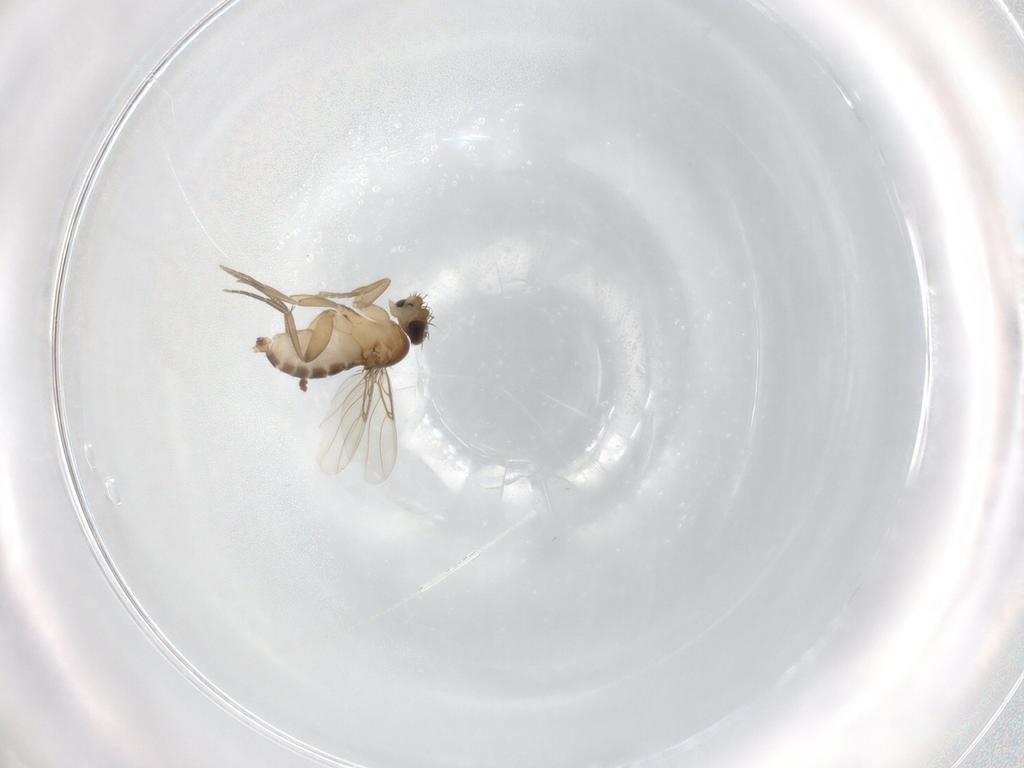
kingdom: Animalia
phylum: Arthropoda
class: Insecta
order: Diptera
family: Phoridae
